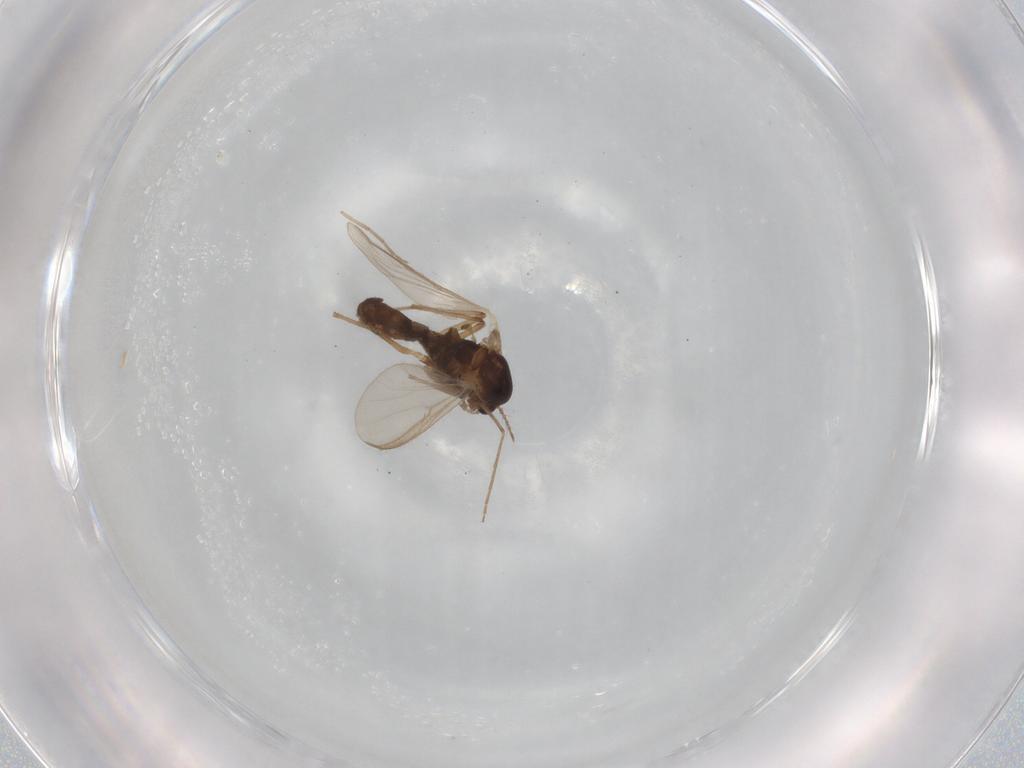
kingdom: Animalia
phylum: Arthropoda
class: Insecta
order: Diptera
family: Chironomidae
